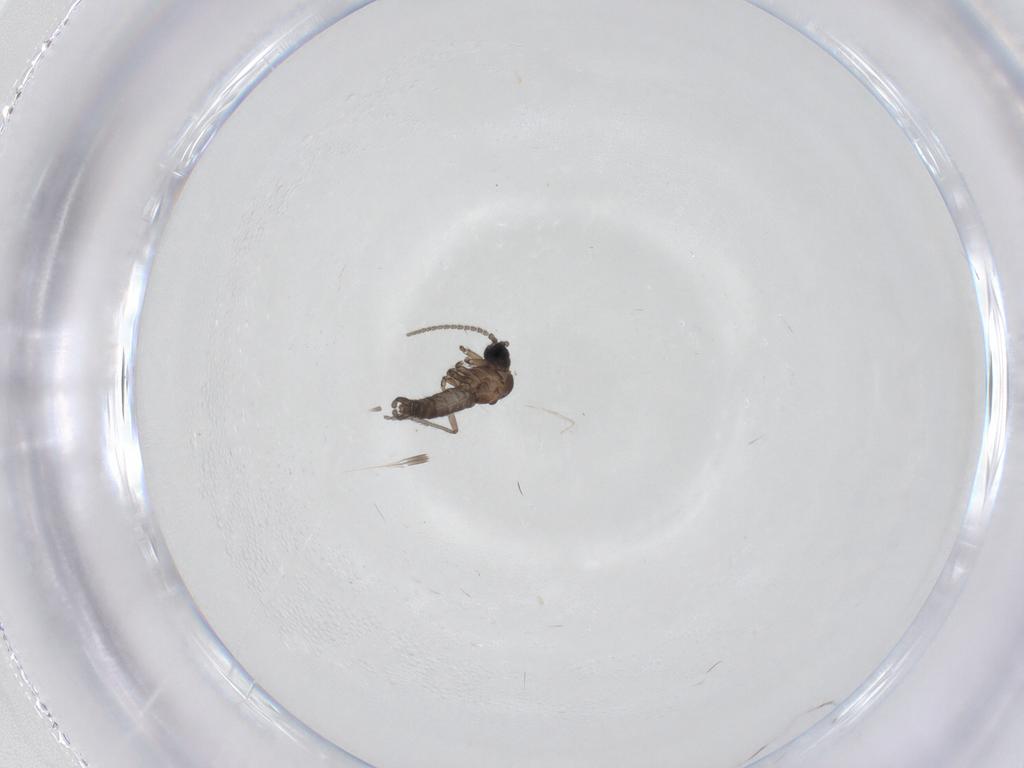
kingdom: Animalia
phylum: Arthropoda
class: Insecta
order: Diptera
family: Sciaridae
